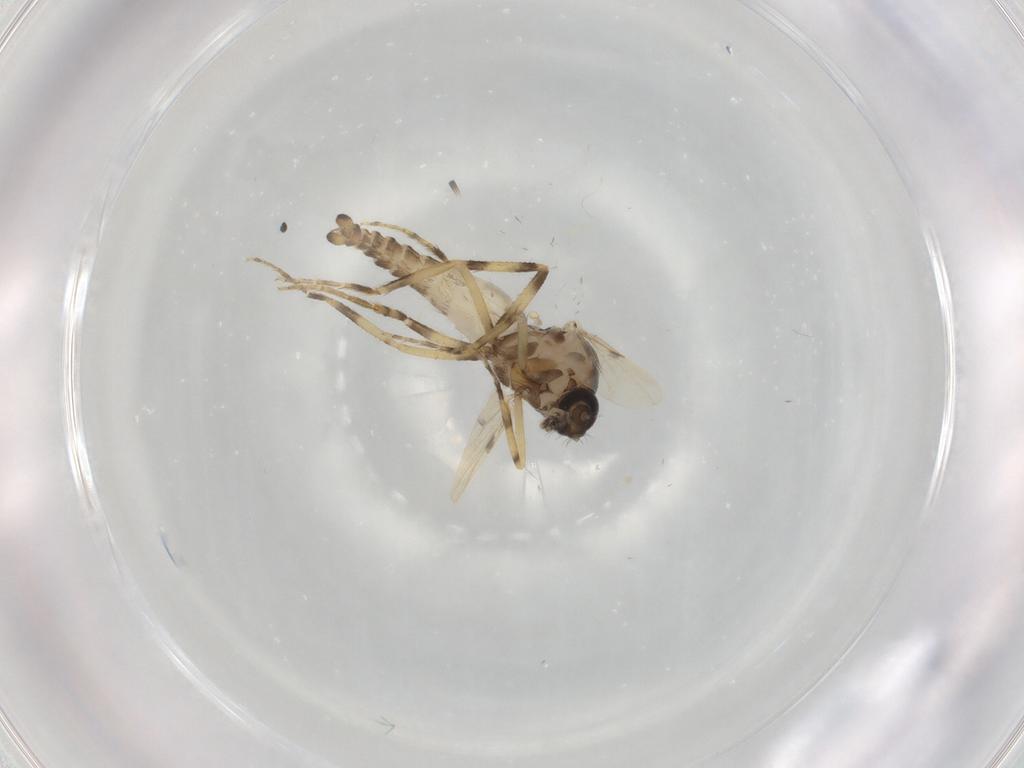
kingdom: Animalia
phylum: Arthropoda
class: Insecta
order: Diptera
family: Ceratopogonidae
